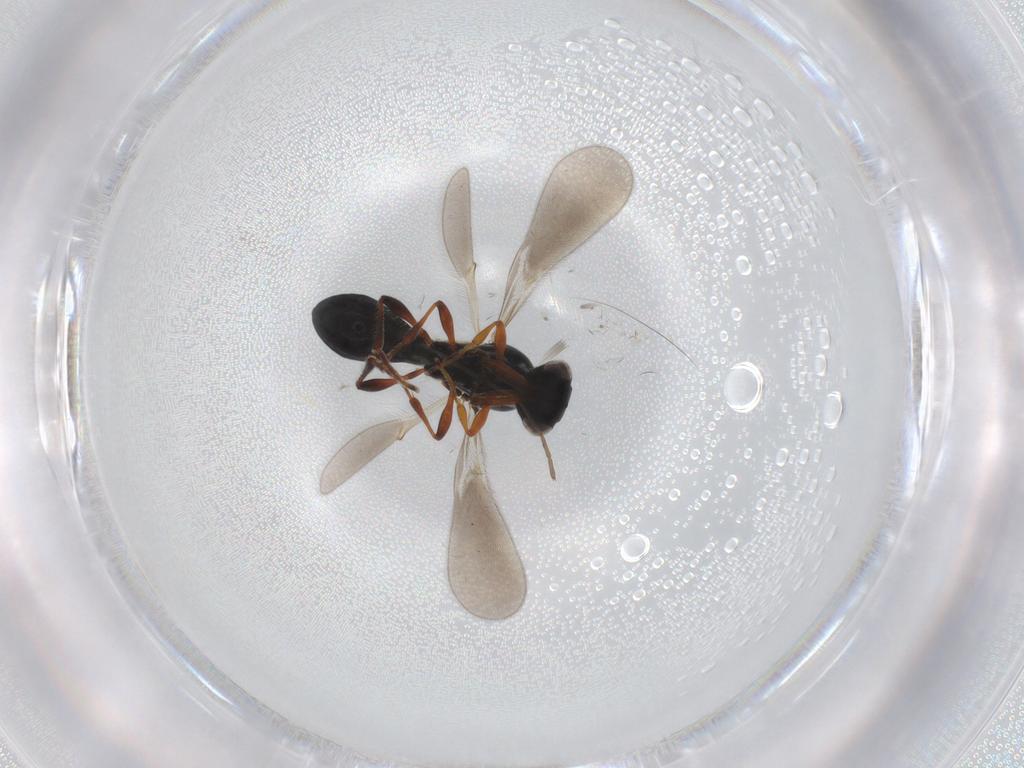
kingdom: Animalia
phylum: Arthropoda
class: Insecta
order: Hymenoptera
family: Platygastridae
